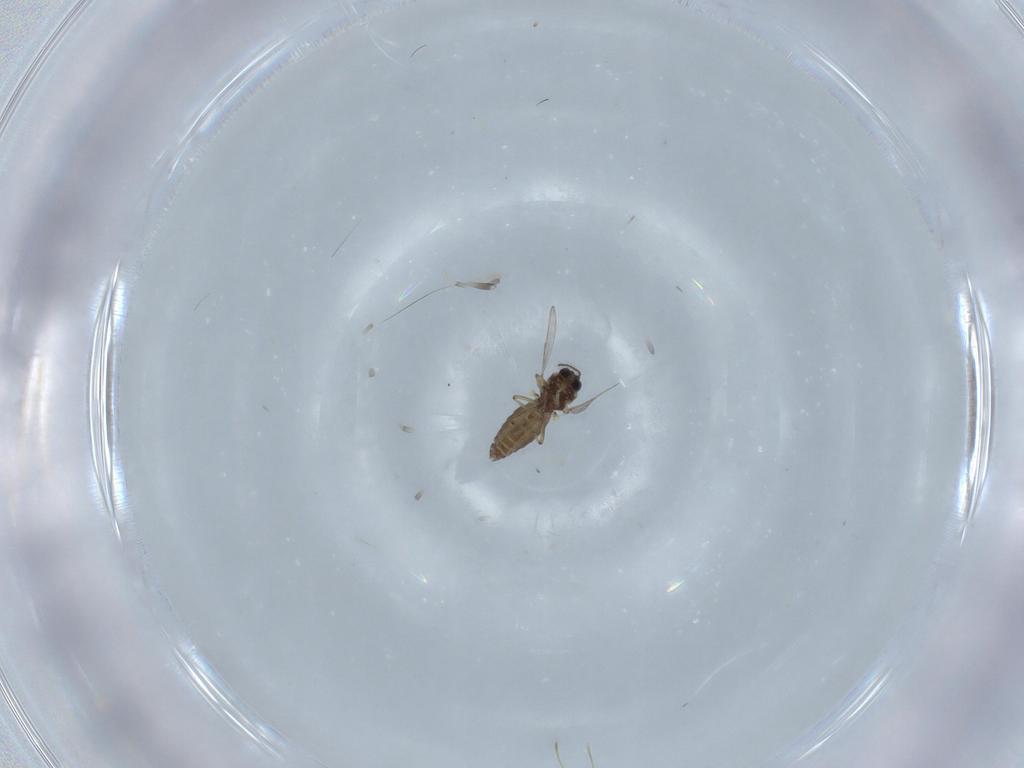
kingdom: Animalia
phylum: Arthropoda
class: Insecta
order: Diptera
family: Ceratopogonidae
